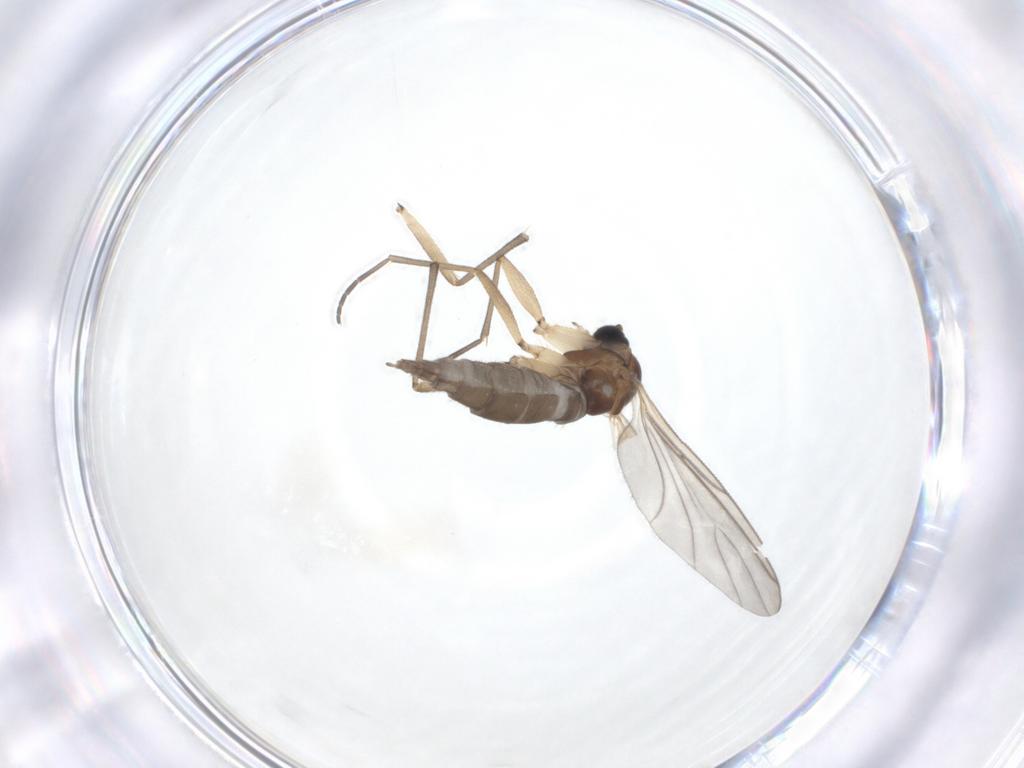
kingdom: Animalia
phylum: Arthropoda
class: Insecta
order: Diptera
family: Sciaridae
